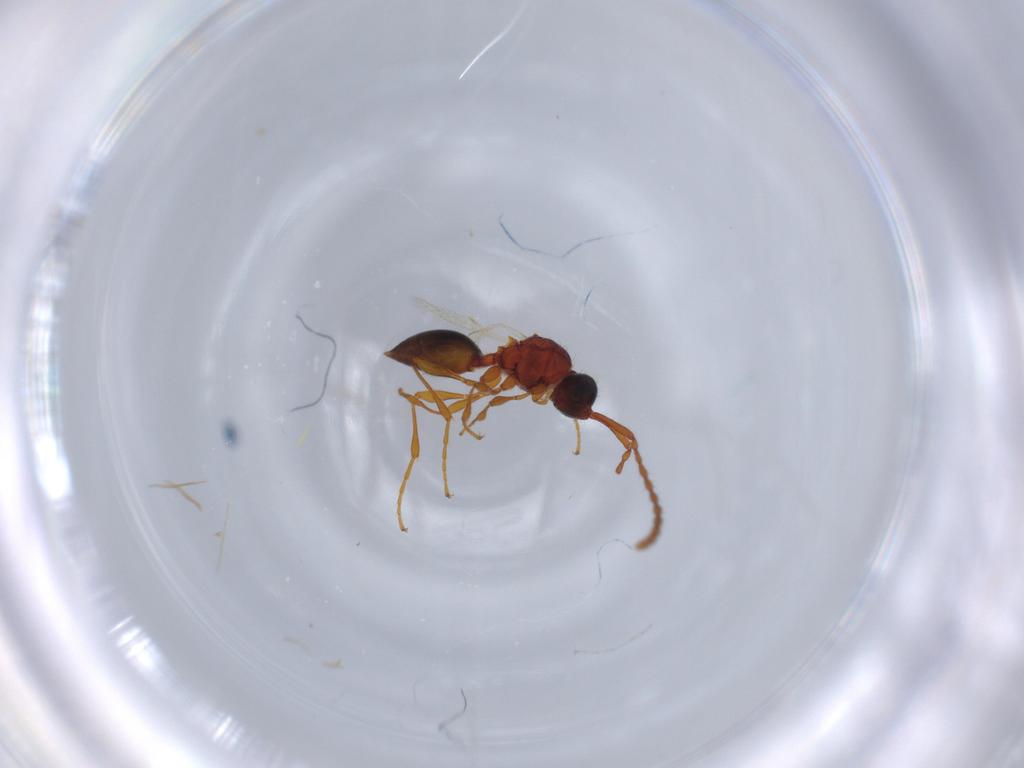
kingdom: Animalia
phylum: Arthropoda
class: Insecta
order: Hymenoptera
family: Diapriidae
